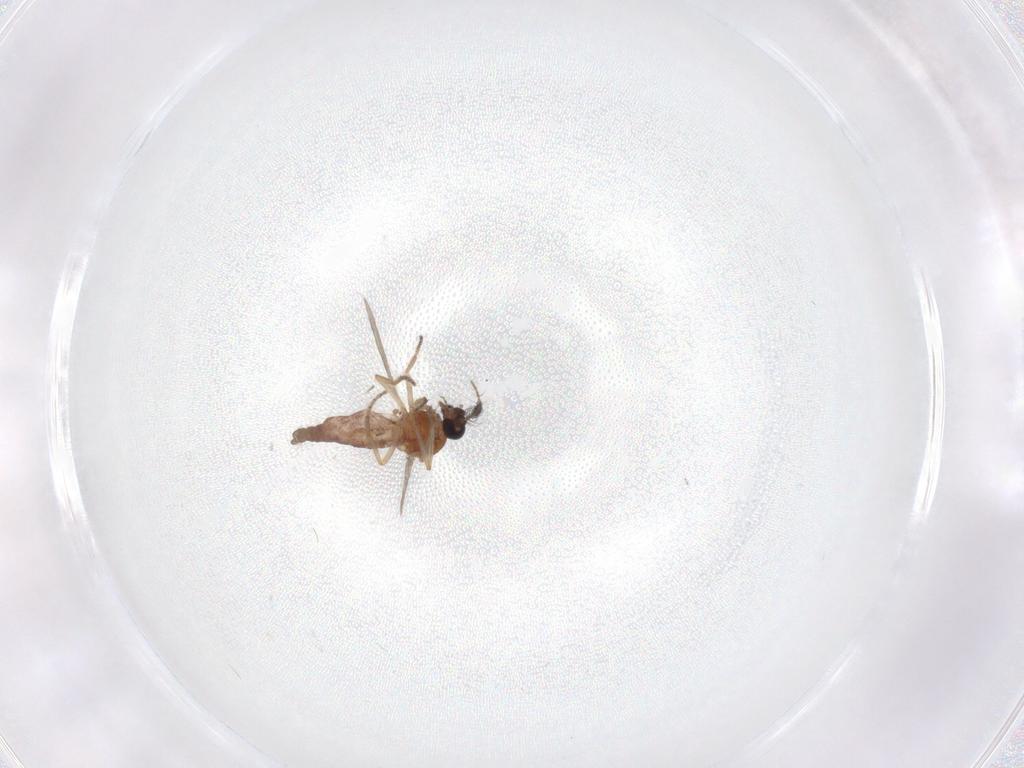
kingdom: Animalia
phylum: Arthropoda
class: Insecta
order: Diptera
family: Ceratopogonidae
